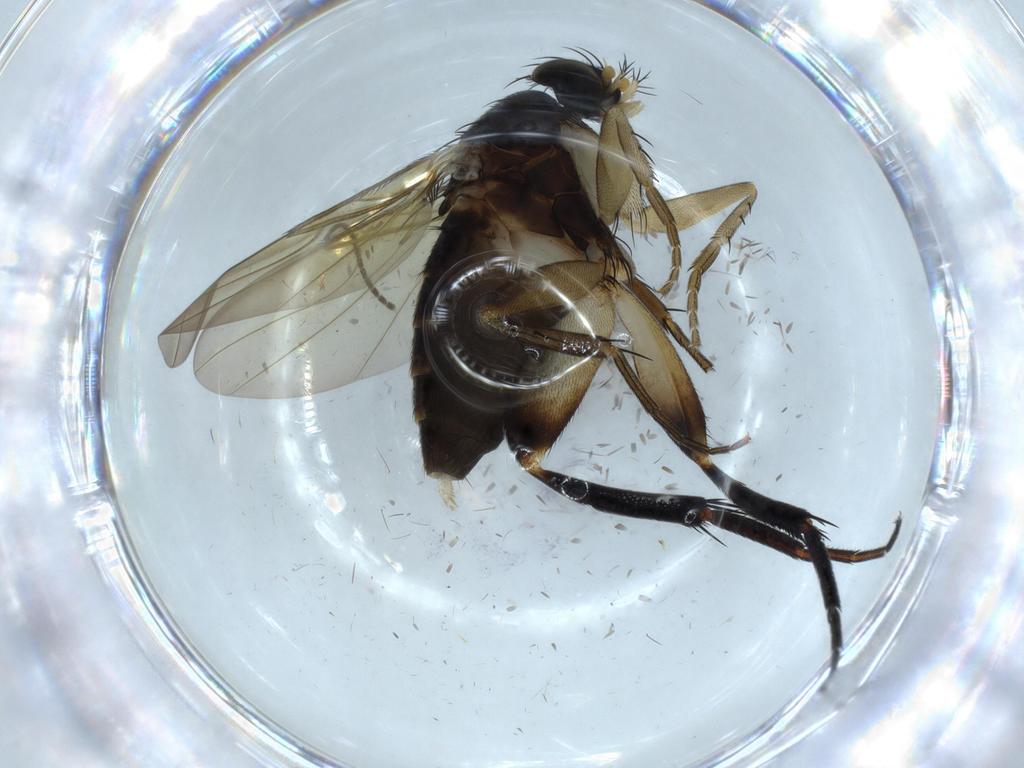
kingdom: Animalia
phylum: Arthropoda
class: Insecta
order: Diptera
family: Phoridae
